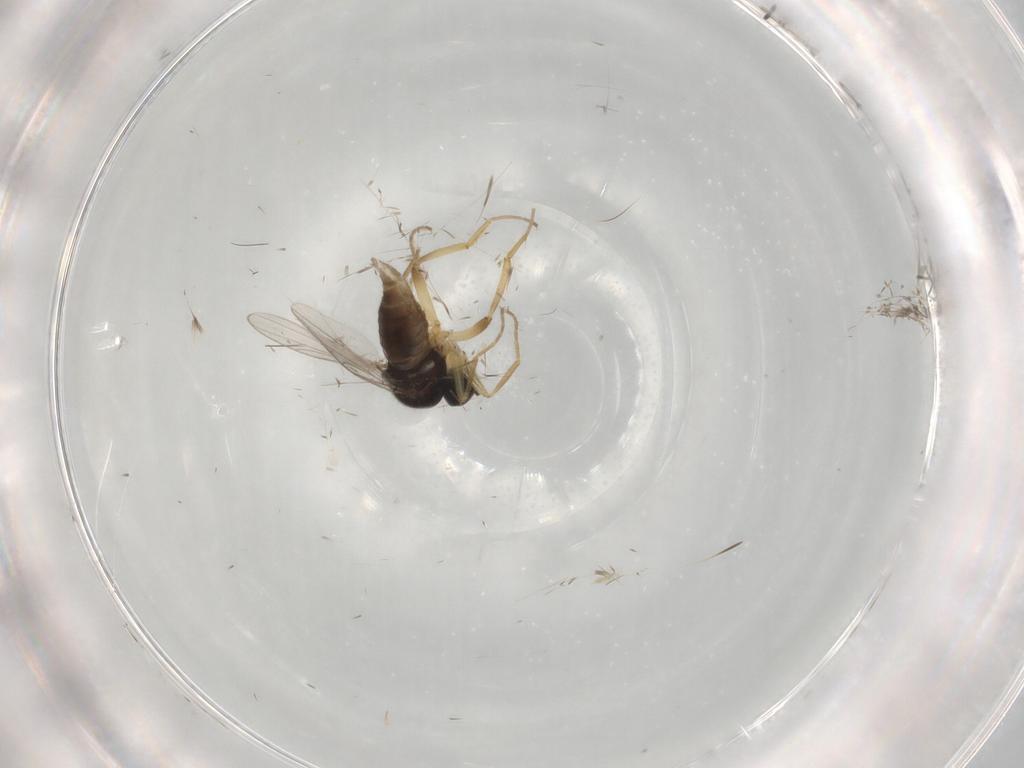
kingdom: Animalia
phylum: Arthropoda
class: Insecta
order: Diptera
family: Hybotidae
